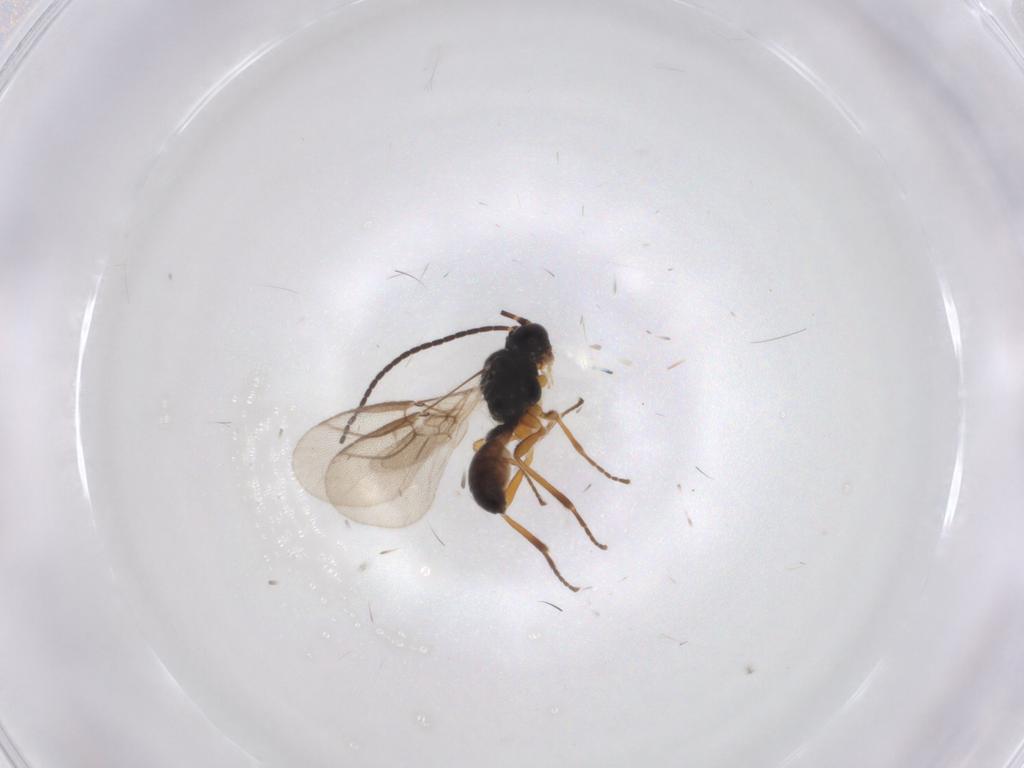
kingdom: Animalia
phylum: Arthropoda
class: Insecta
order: Hymenoptera
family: Braconidae
